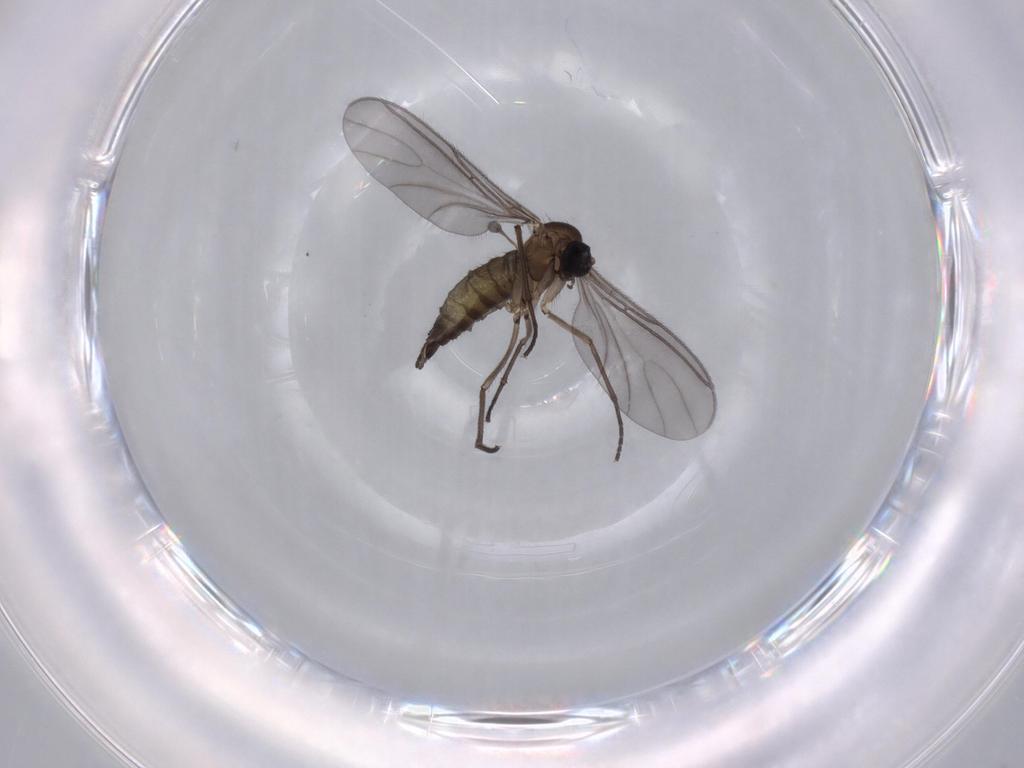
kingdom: Animalia
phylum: Arthropoda
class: Insecta
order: Diptera
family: Sciaridae
